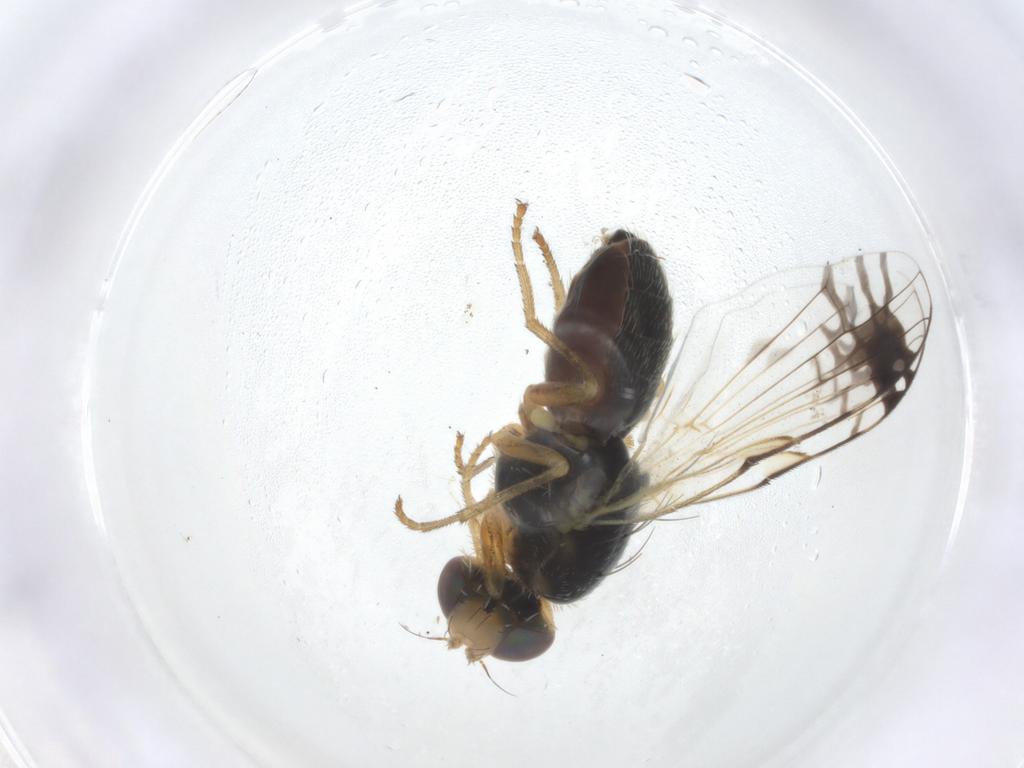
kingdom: Animalia
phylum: Arthropoda
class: Insecta
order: Diptera
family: Tephritidae
